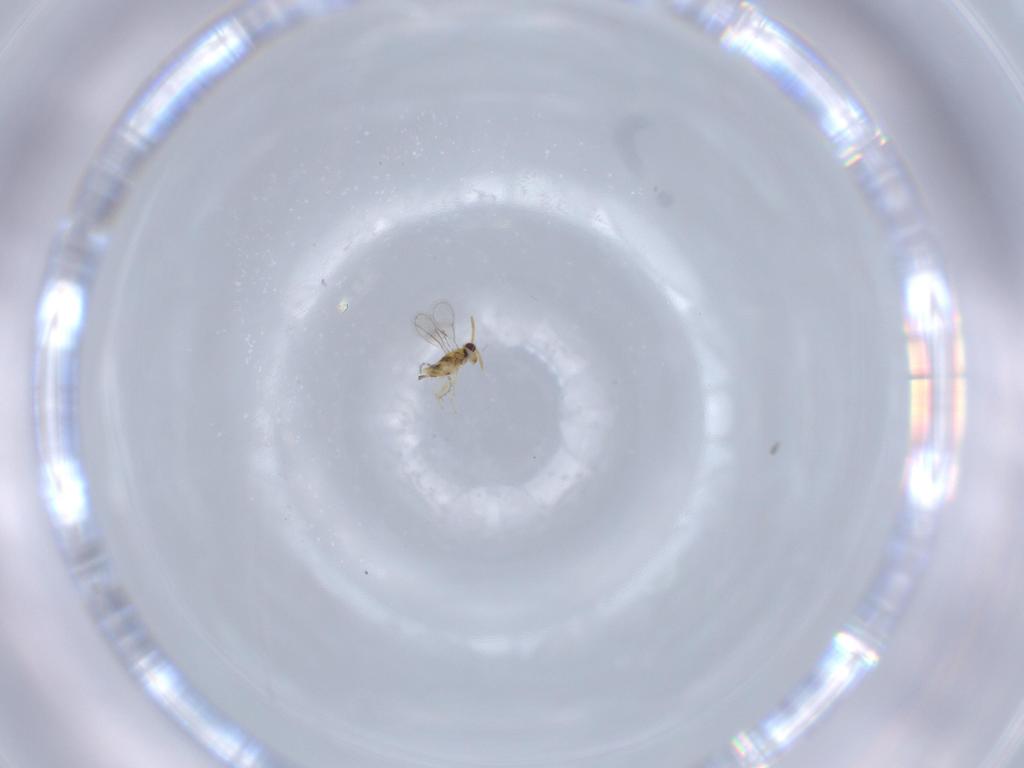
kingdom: Animalia
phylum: Arthropoda
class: Insecta
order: Hymenoptera
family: Aphelinidae
